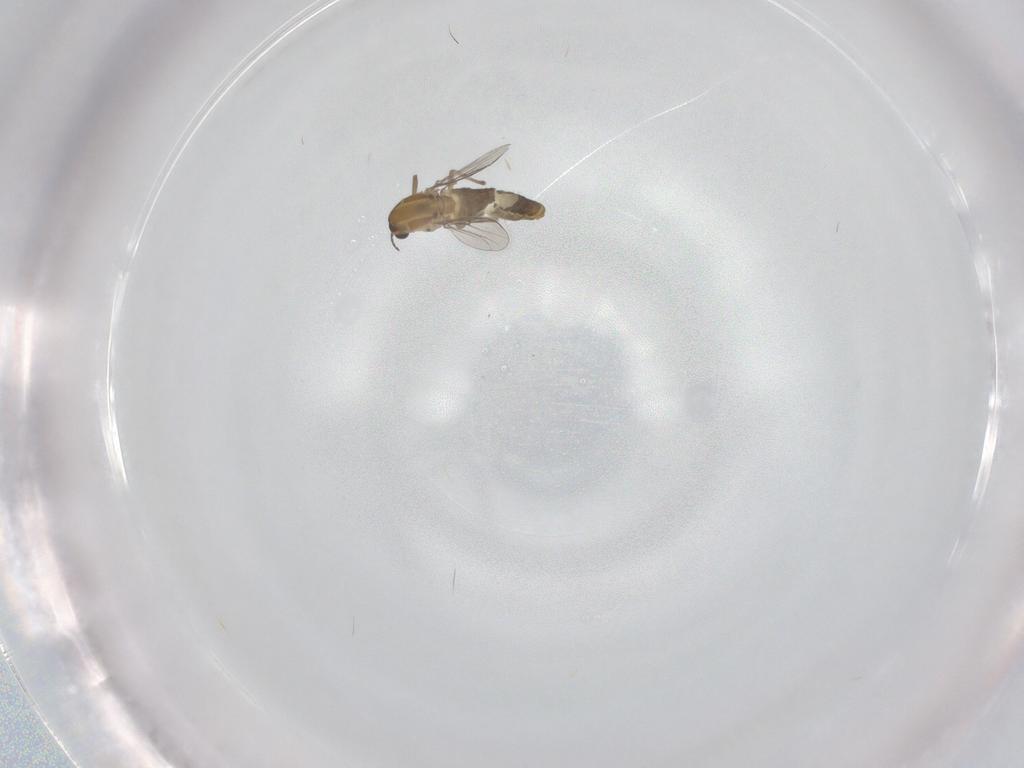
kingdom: Animalia
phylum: Arthropoda
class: Insecta
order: Diptera
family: Chironomidae
